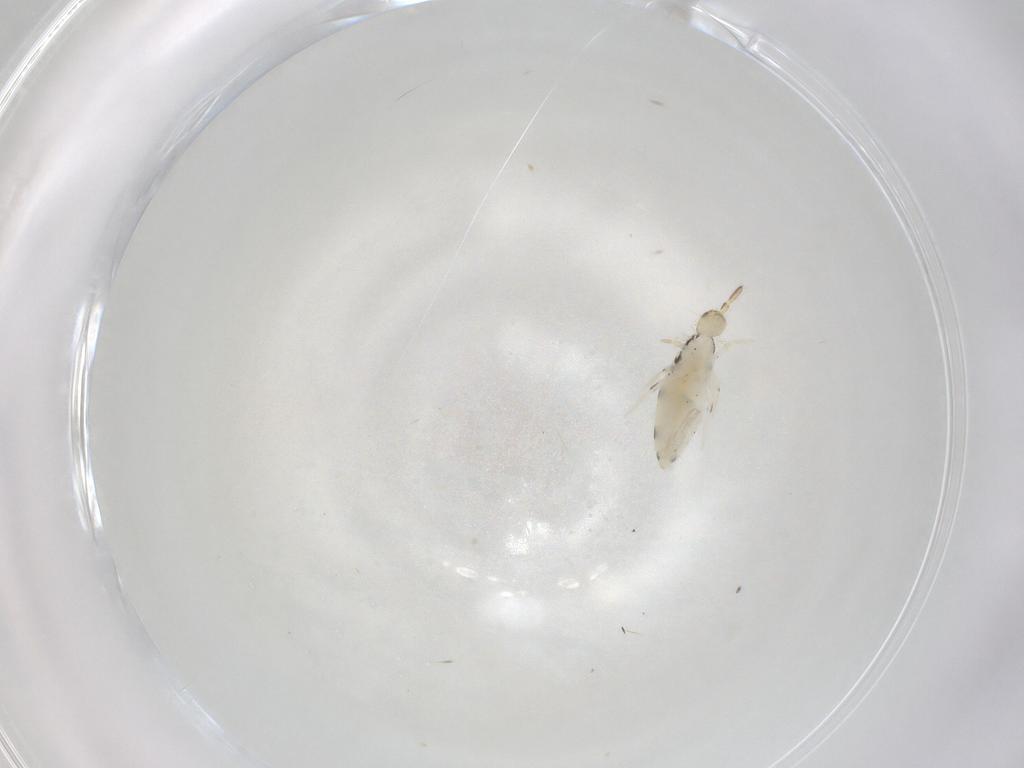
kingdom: Animalia
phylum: Arthropoda
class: Collembola
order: Entomobryomorpha
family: Entomobryidae
